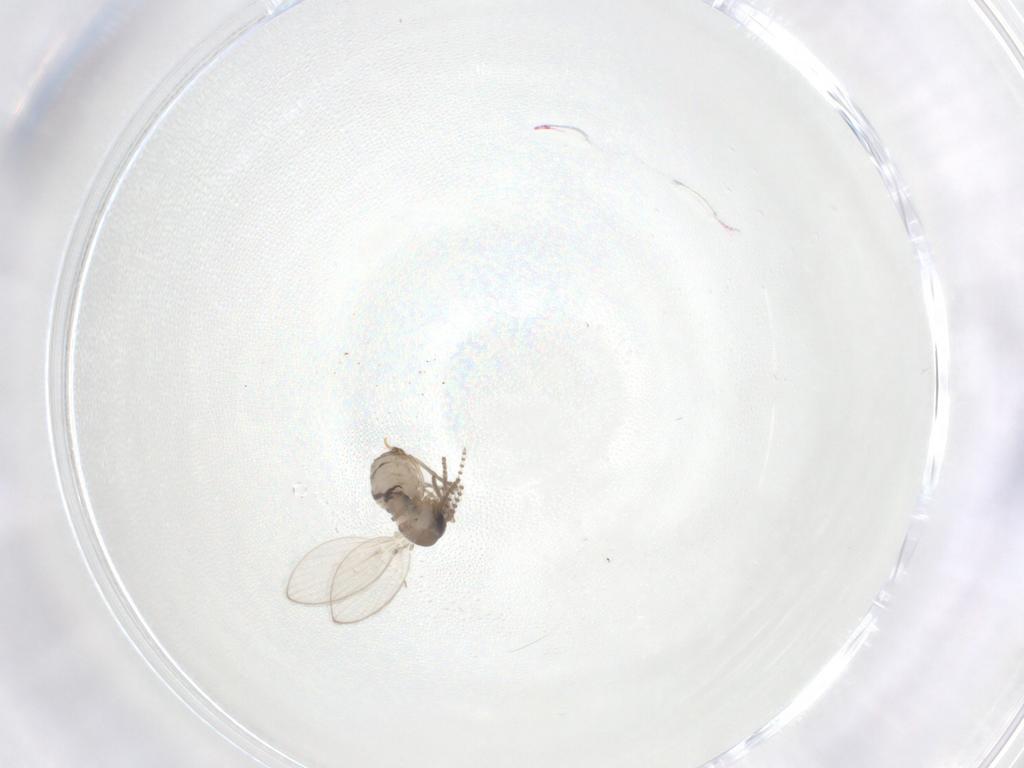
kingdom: Animalia
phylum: Arthropoda
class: Insecta
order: Diptera
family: Psychodidae
